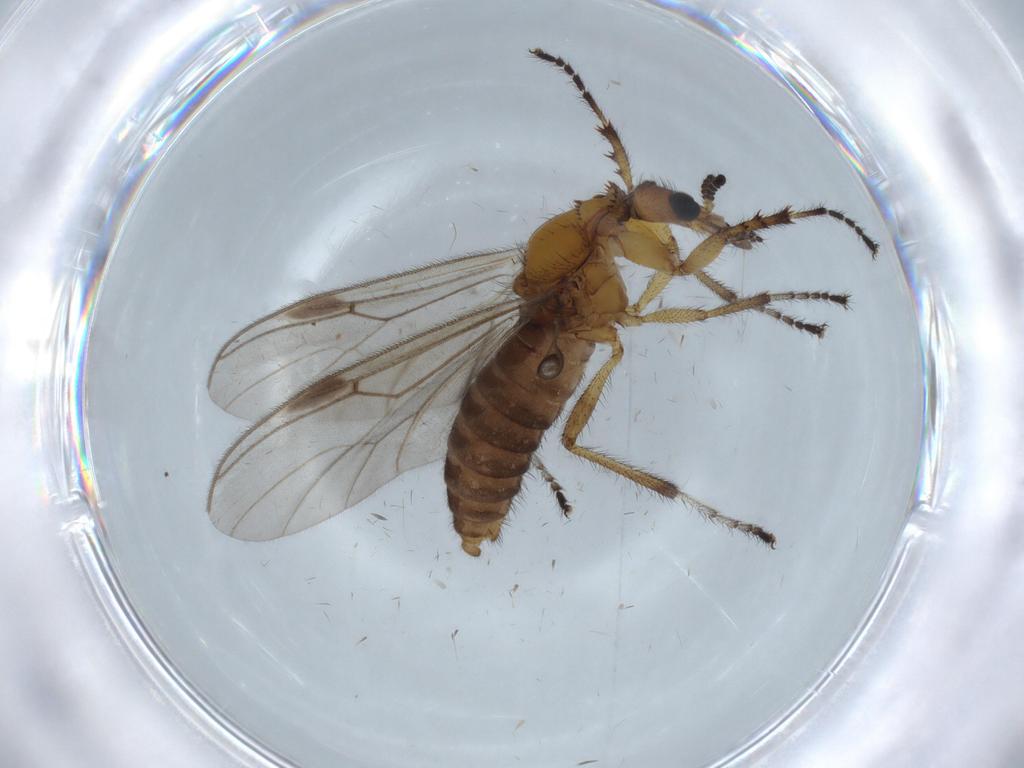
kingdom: Animalia
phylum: Arthropoda
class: Insecta
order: Diptera
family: Bibionidae
